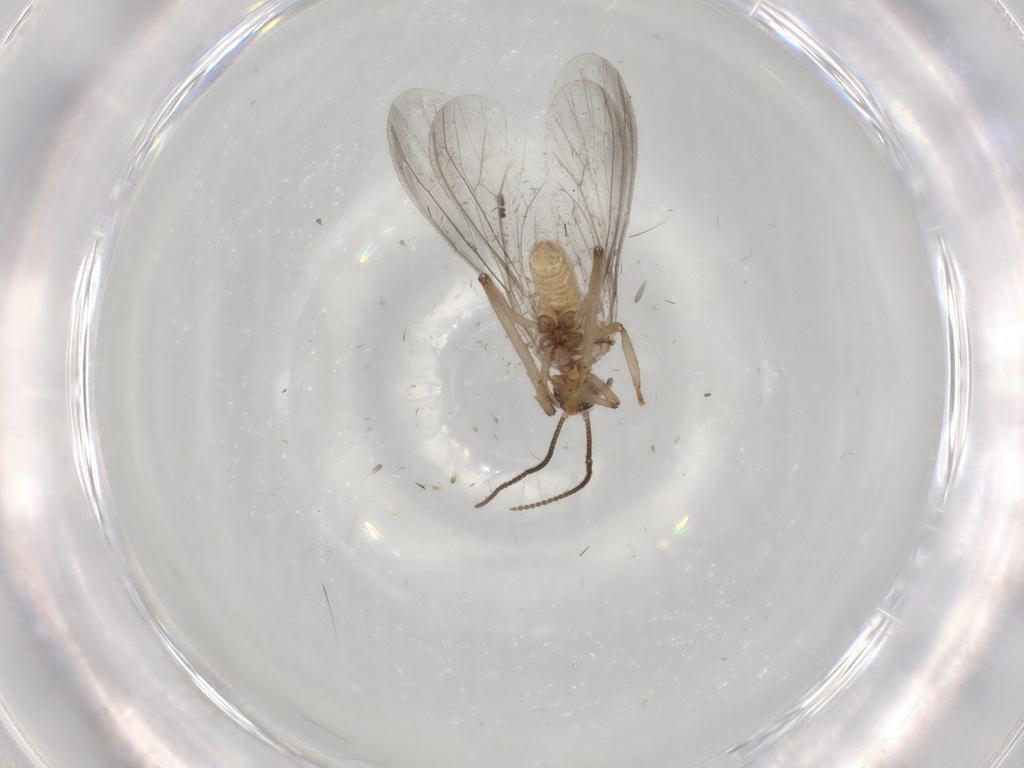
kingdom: Animalia
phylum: Arthropoda
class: Insecta
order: Neuroptera
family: Coniopterygidae
